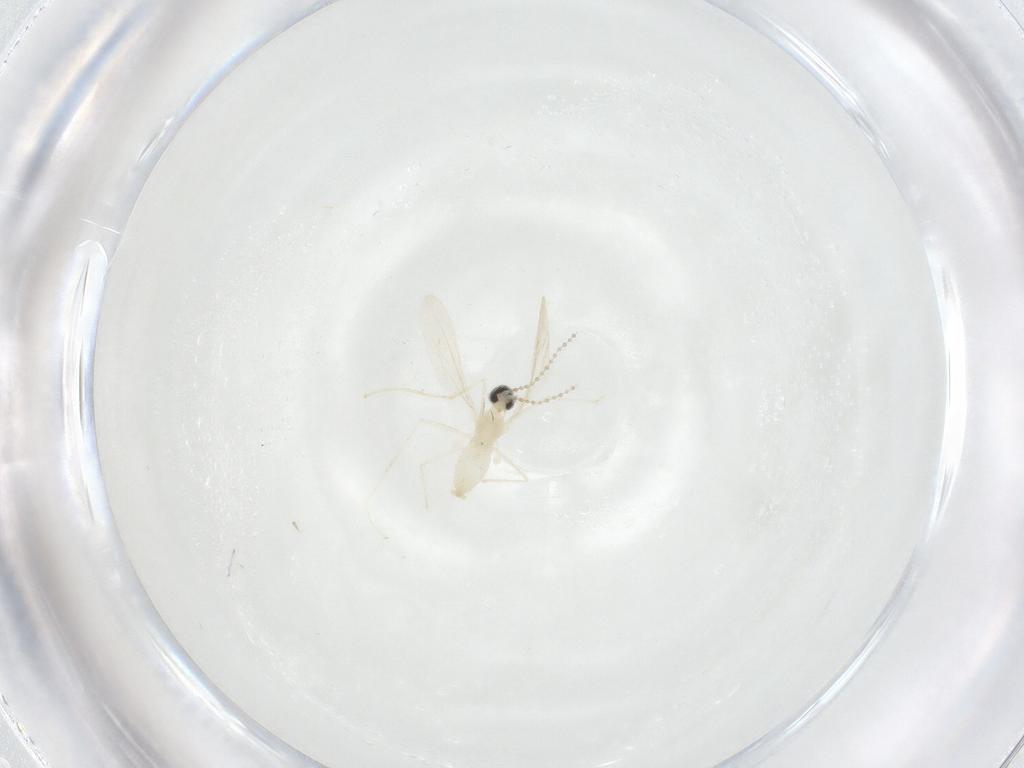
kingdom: Animalia
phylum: Arthropoda
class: Insecta
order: Diptera
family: Cecidomyiidae
